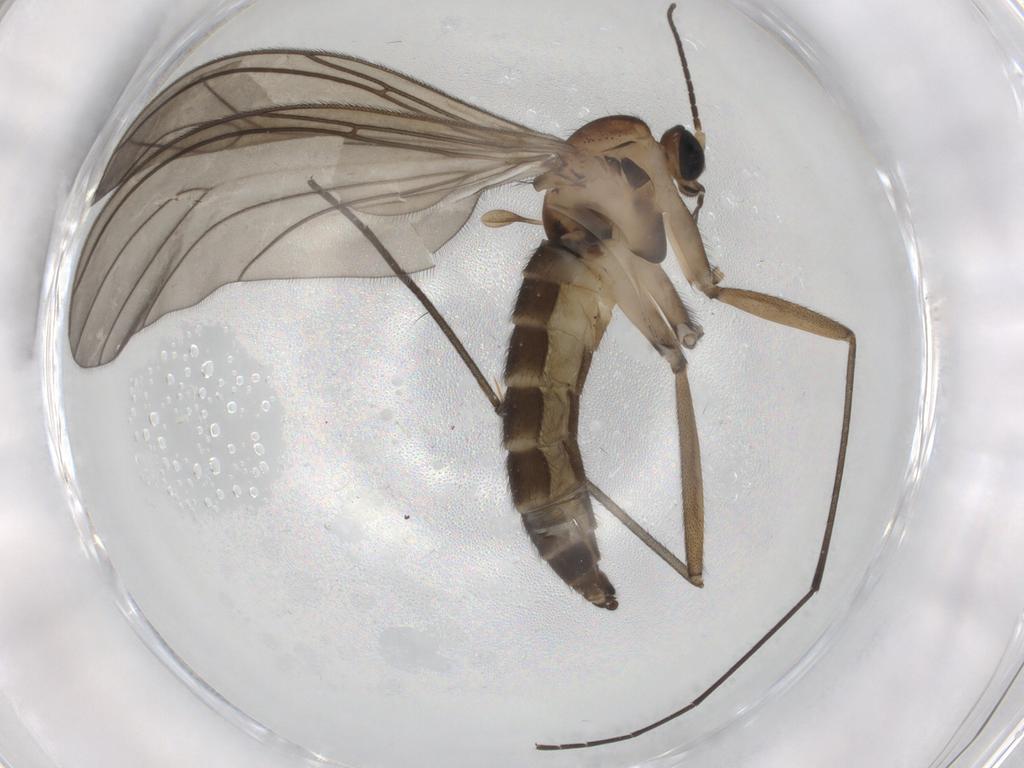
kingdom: Animalia
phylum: Arthropoda
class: Insecta
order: Diptera
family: Sciaridae
